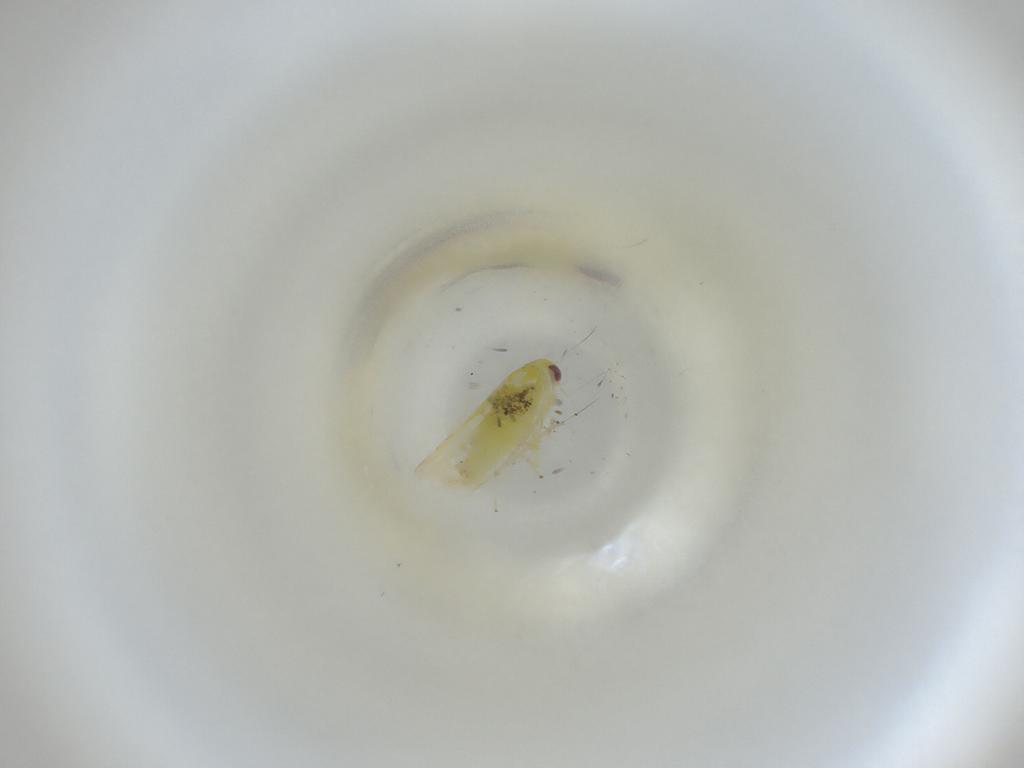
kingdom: Animalia
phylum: Arthropoda
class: Insecta
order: Hemiptera
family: Cicadellidae
